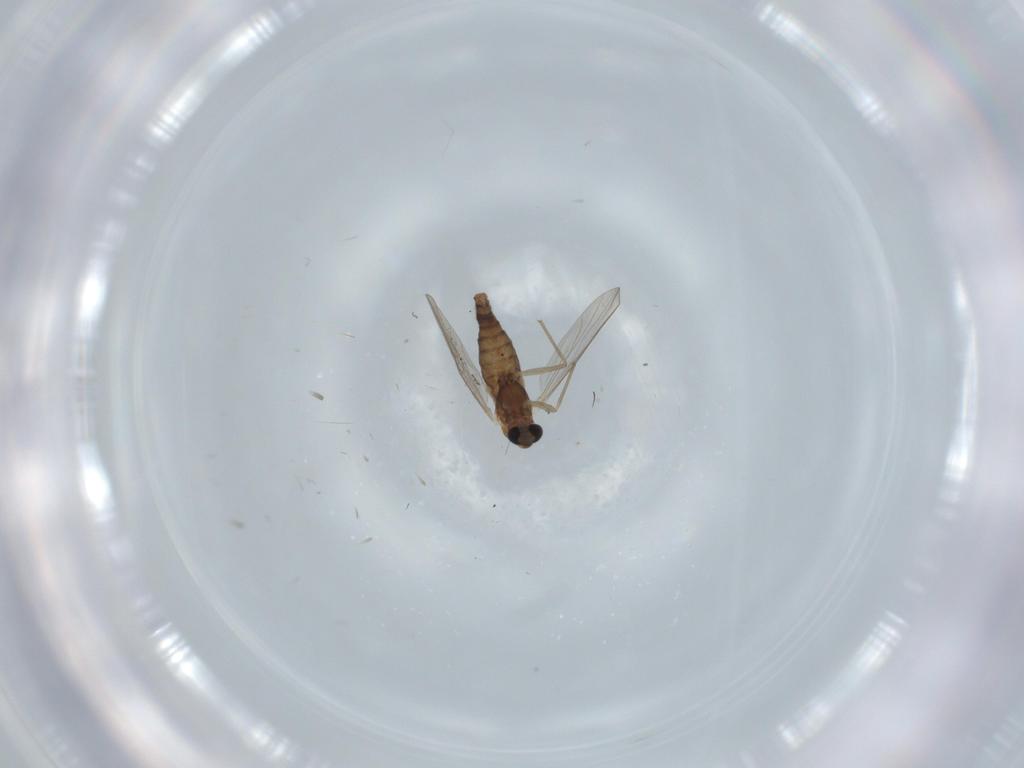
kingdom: Animalia
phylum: Arthropoda
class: Insecta
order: Diptera
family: Chironomidae
